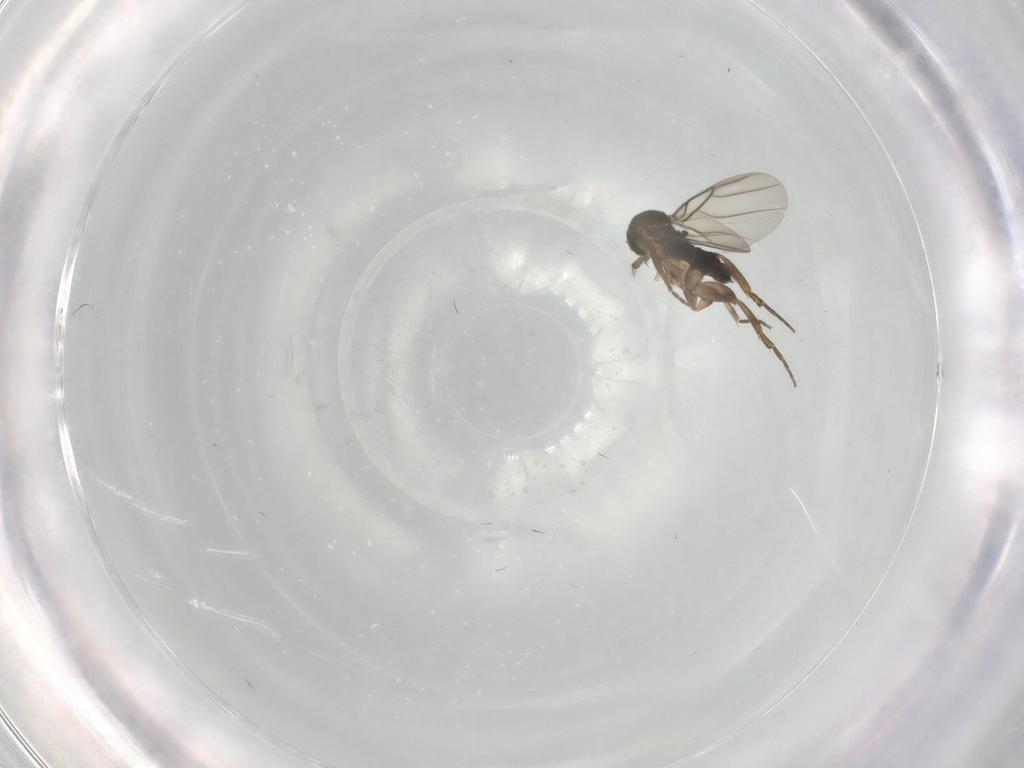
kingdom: Animalia
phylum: Arthropoda
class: Insecta
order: Diptera
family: Phoridae
